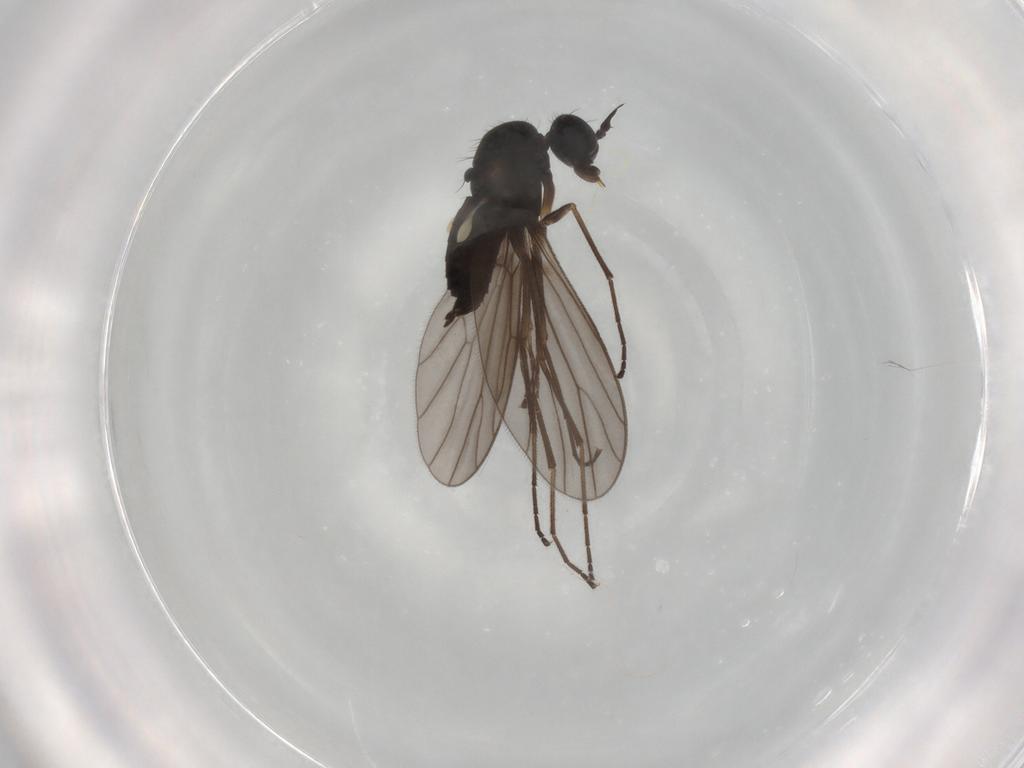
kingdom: Animalia
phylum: Arthropoda
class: Insecta
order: Diptera
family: Empididae
